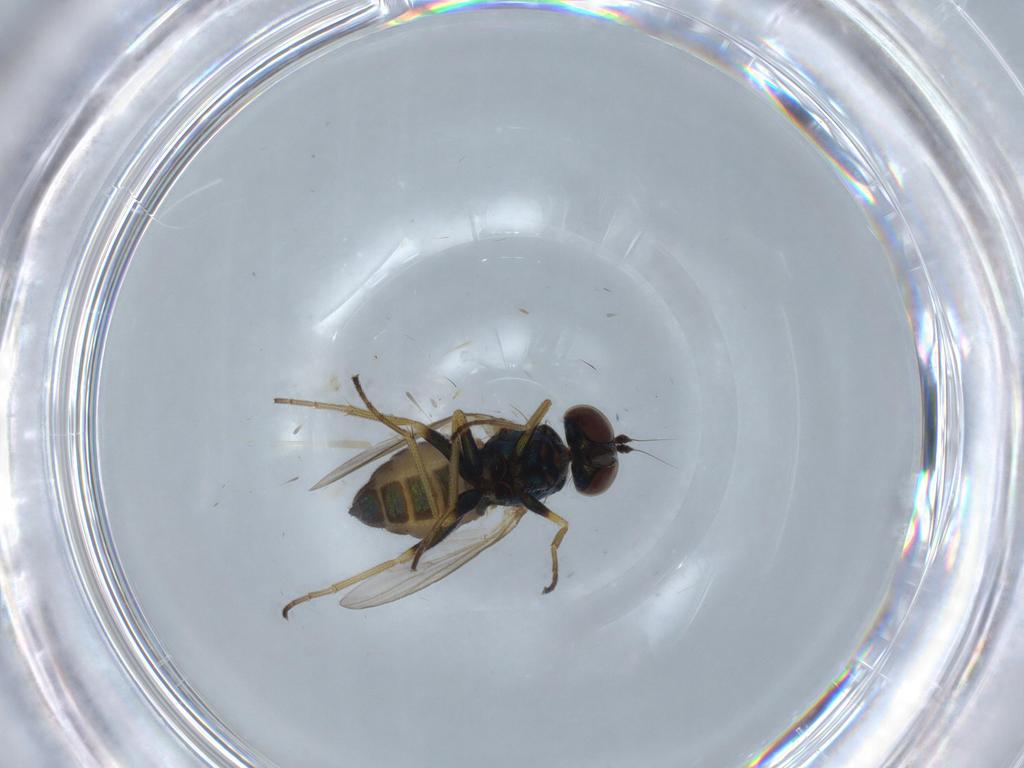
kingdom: Animalia
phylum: Arthropoda
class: Insecta
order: Diptera
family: Dolichopodidae
